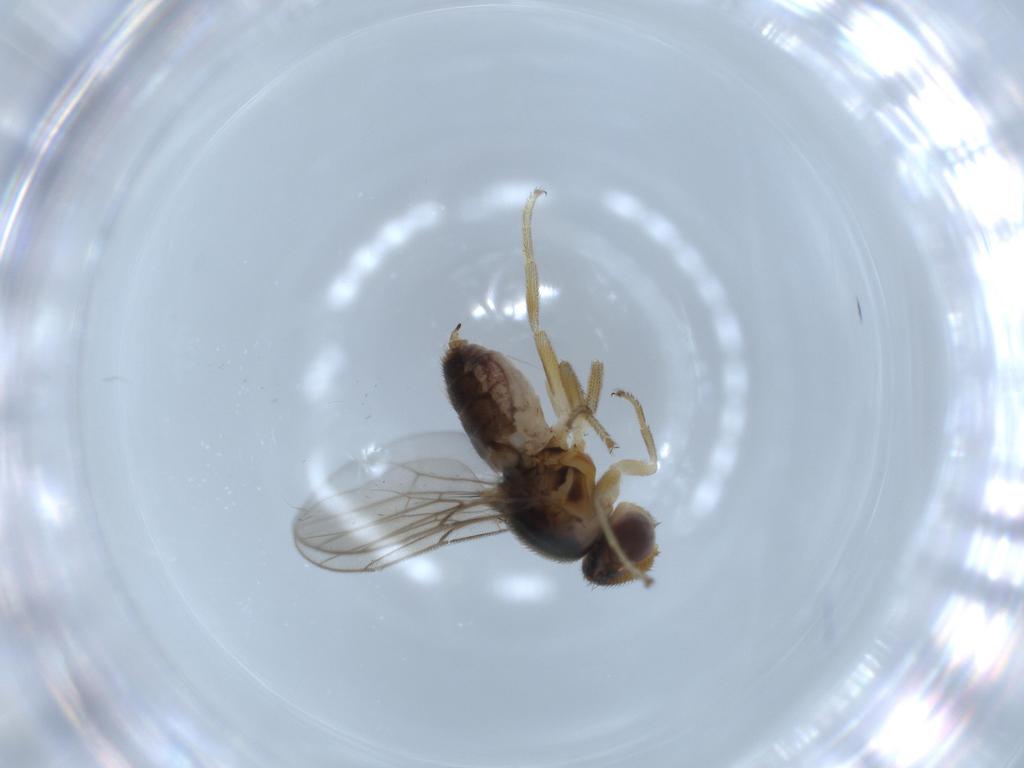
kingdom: Animalia
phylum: Arthropoda
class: Insecta
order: Diptera
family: Chloropidae
